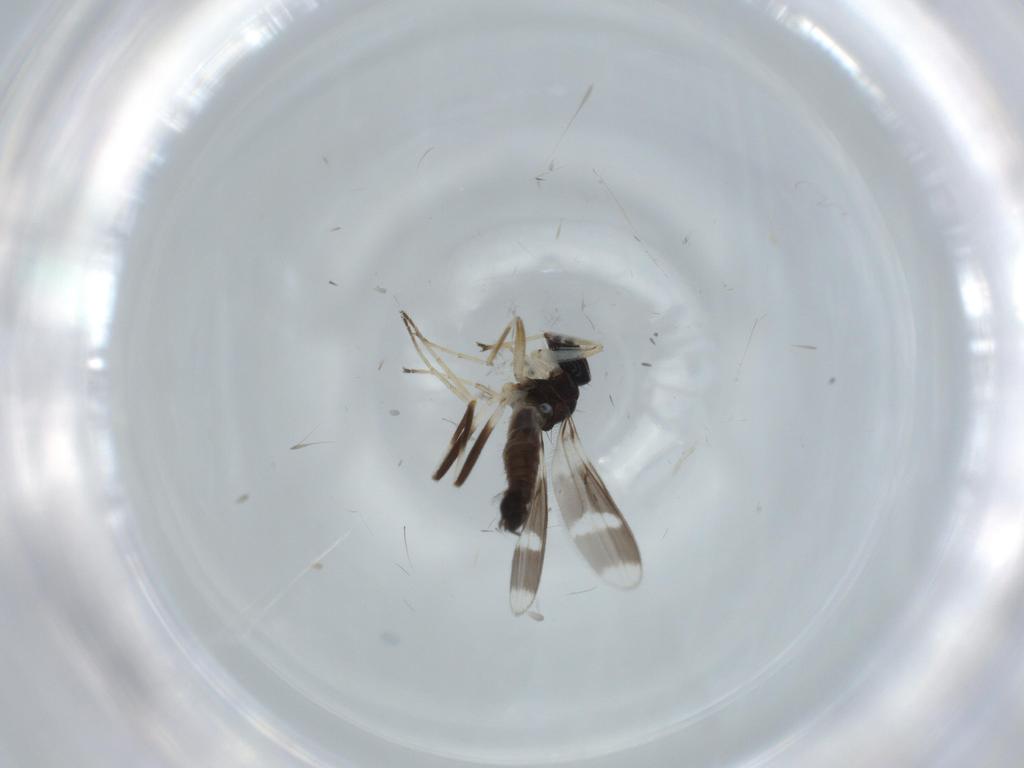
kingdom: Animalia
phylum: Arthropoda
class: Insecta
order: Diptera
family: Hybotidae
